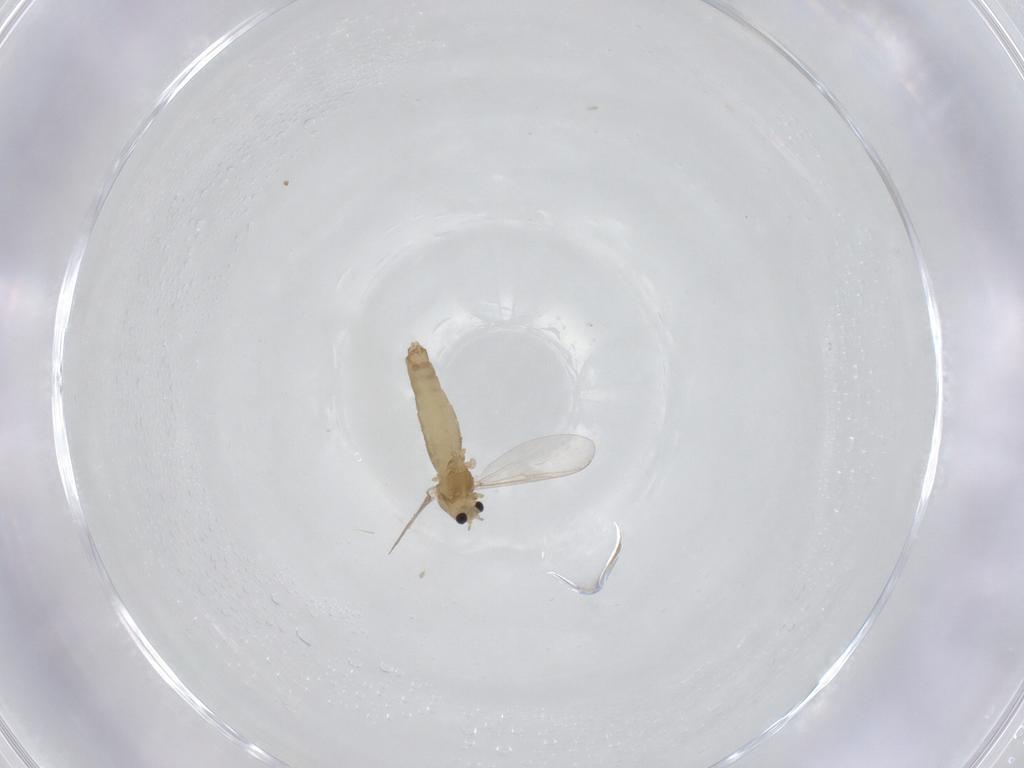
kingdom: Animalia
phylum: Arthropoda
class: Insecta
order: Diptera
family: Chironomidae
